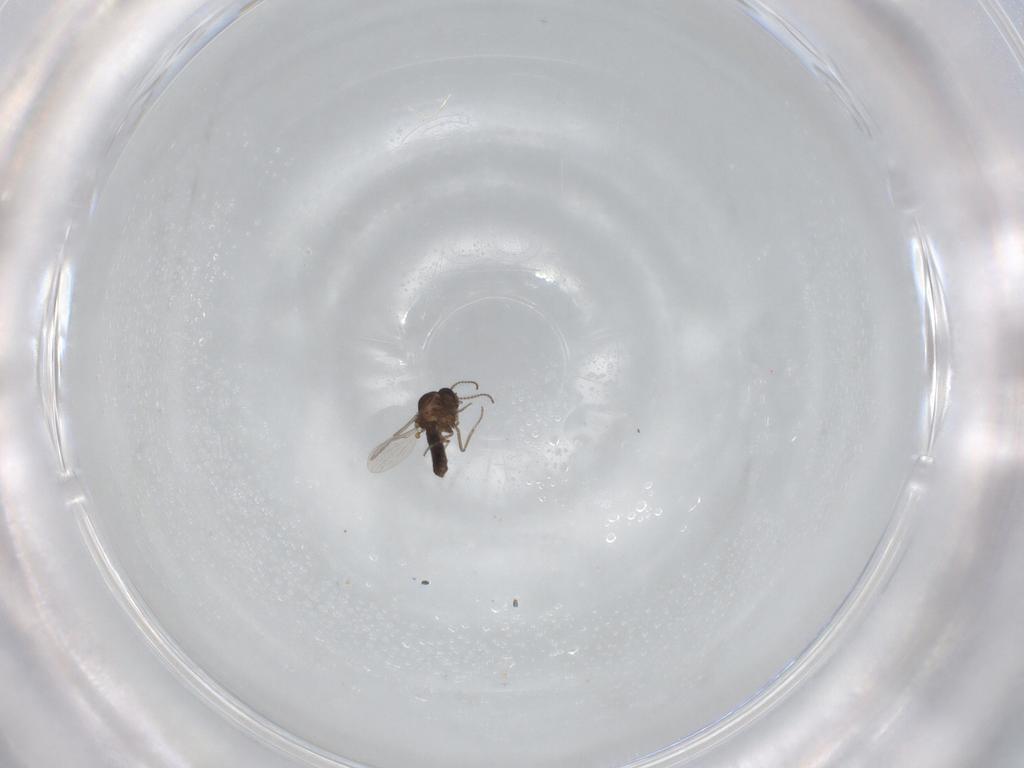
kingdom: Animalia
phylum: Arthropoda
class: Insecta
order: Diptera
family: Ceratopogonidae
